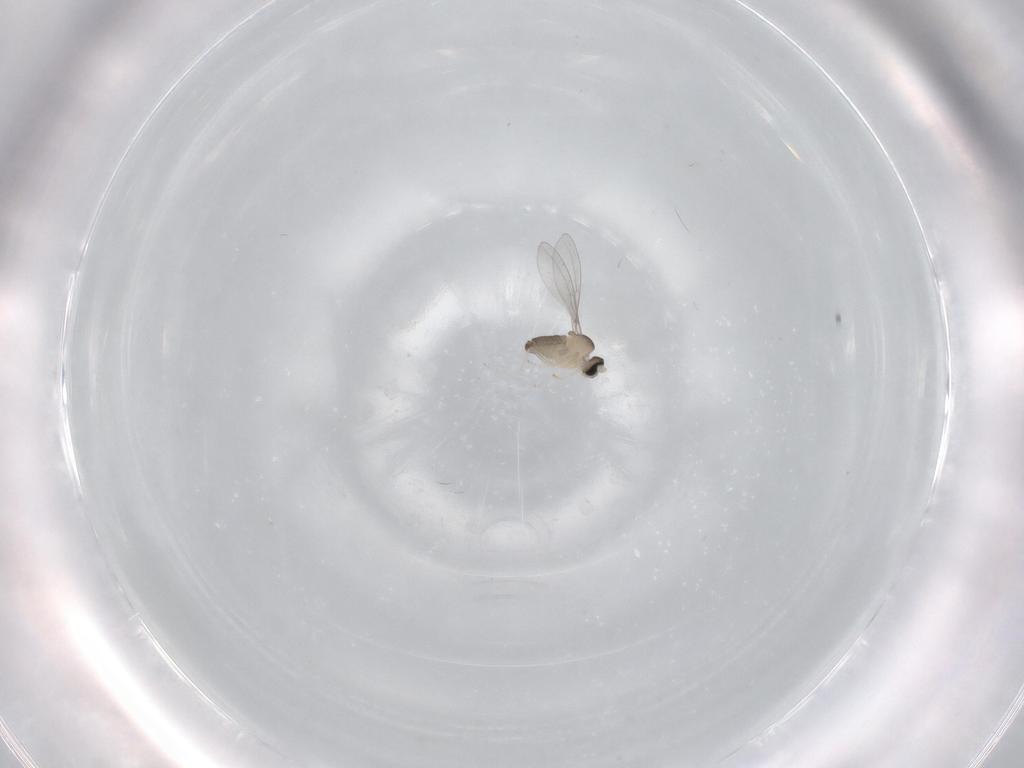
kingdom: Animalia
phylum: Arthropoda
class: Insecta
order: Diptera
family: Cecidomyiidae
